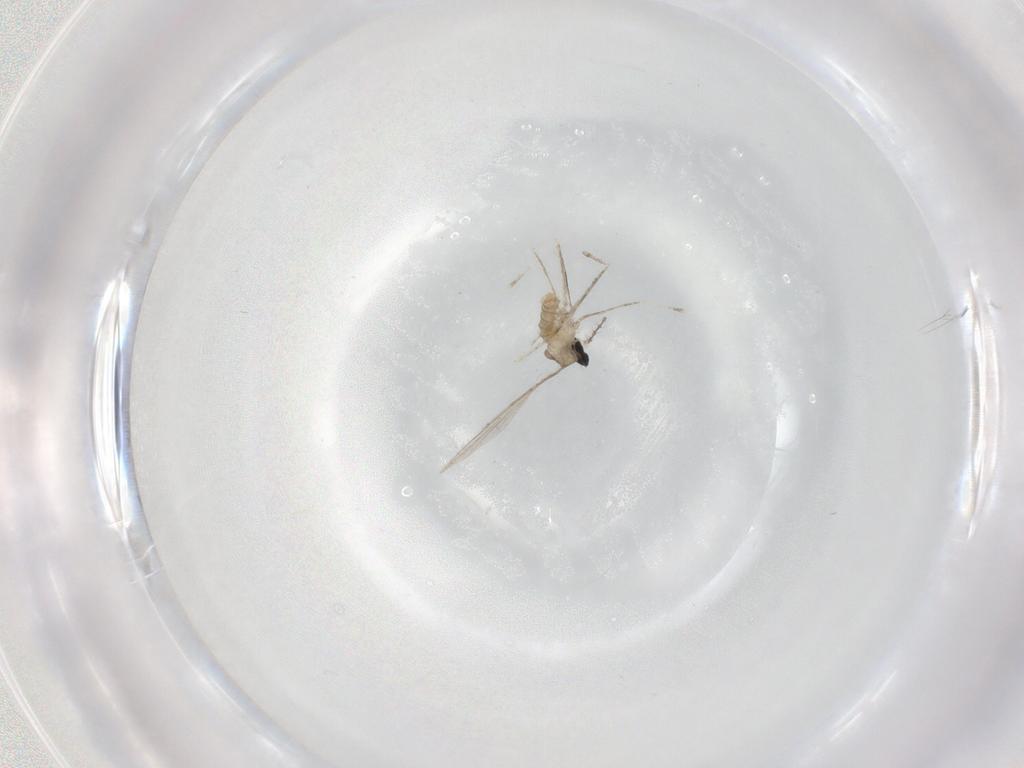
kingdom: Animalia
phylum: Arthropoda
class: Insecta
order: Diptera
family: Cecidomyiidae
